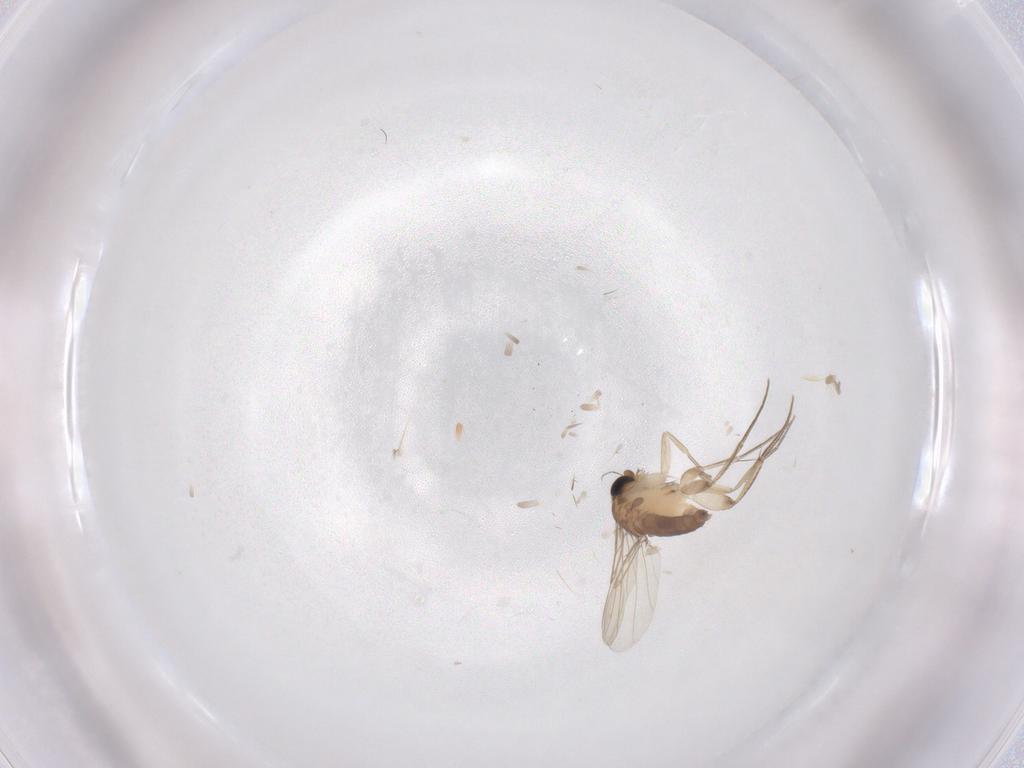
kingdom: Animalia
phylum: Arthropoda
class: Insecta
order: Diptera
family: Phoridae
